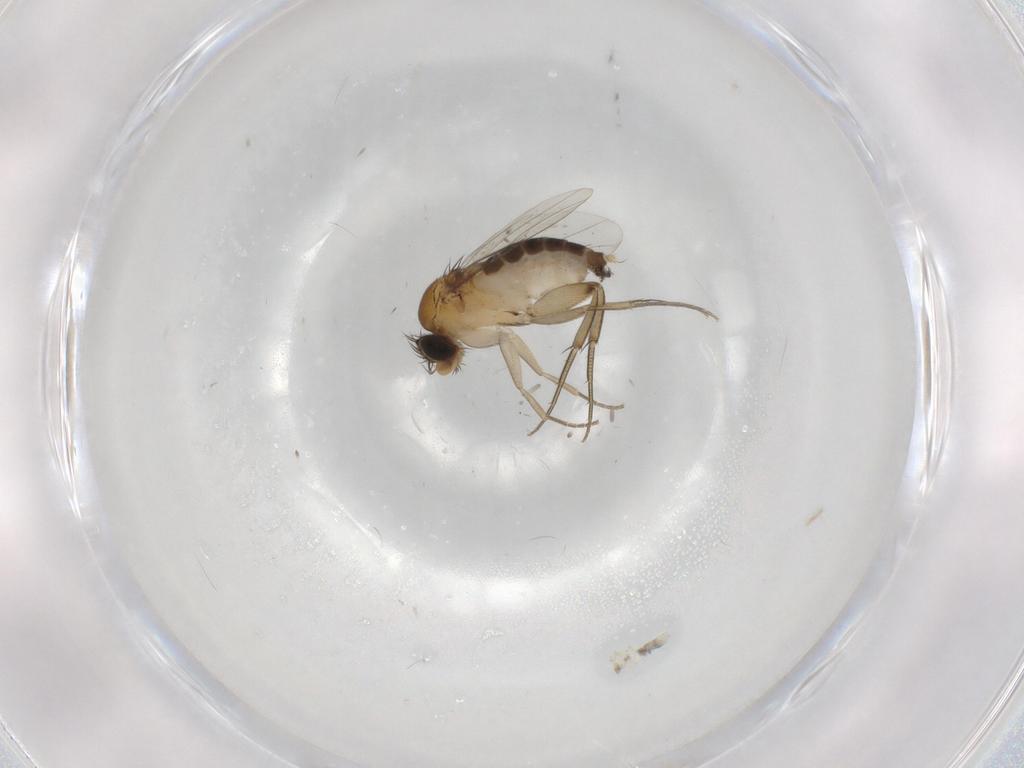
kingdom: Animalia
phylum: Arthropoda
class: Insecta
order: Diptera
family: Phoridae
